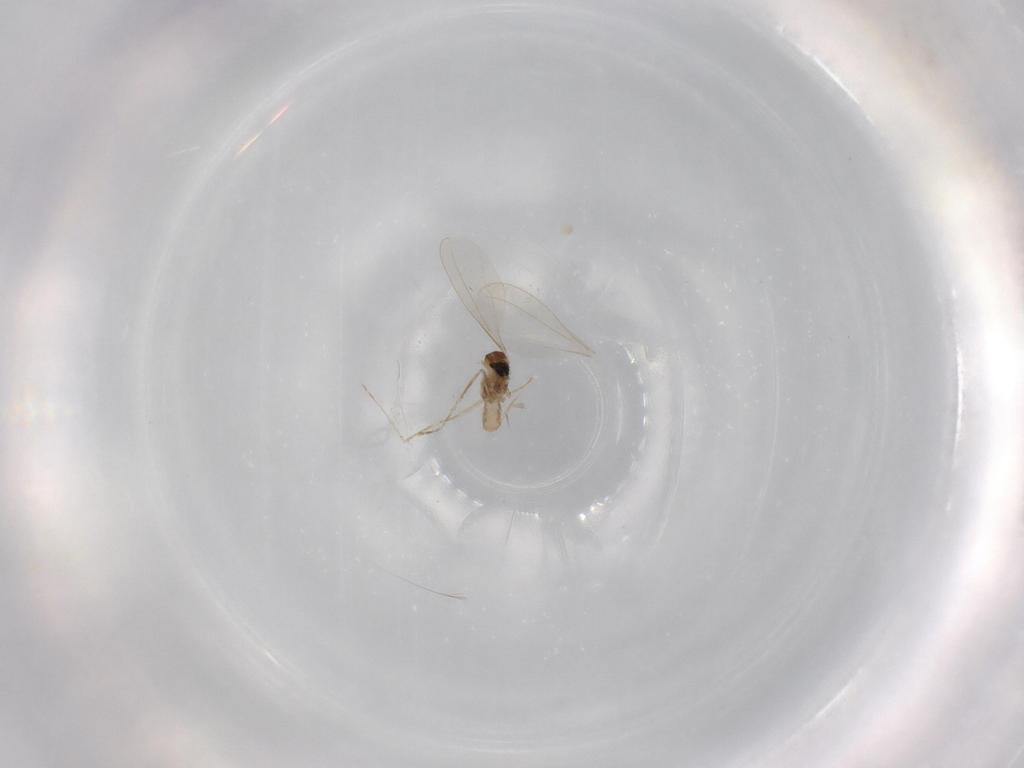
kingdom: Animalia
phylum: Arthropoda
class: Insecta
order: Diptera
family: Cecidomyiidae
